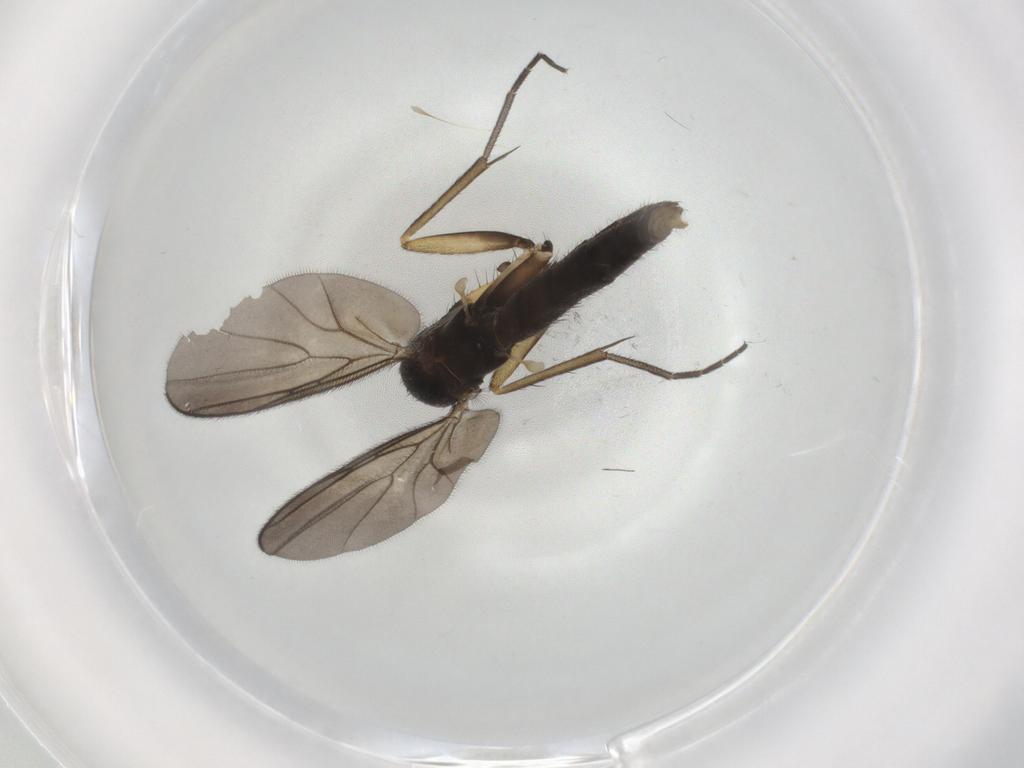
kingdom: Animalia
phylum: Arthropoda
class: Insecta
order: Diptera
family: Mycetophilidae
